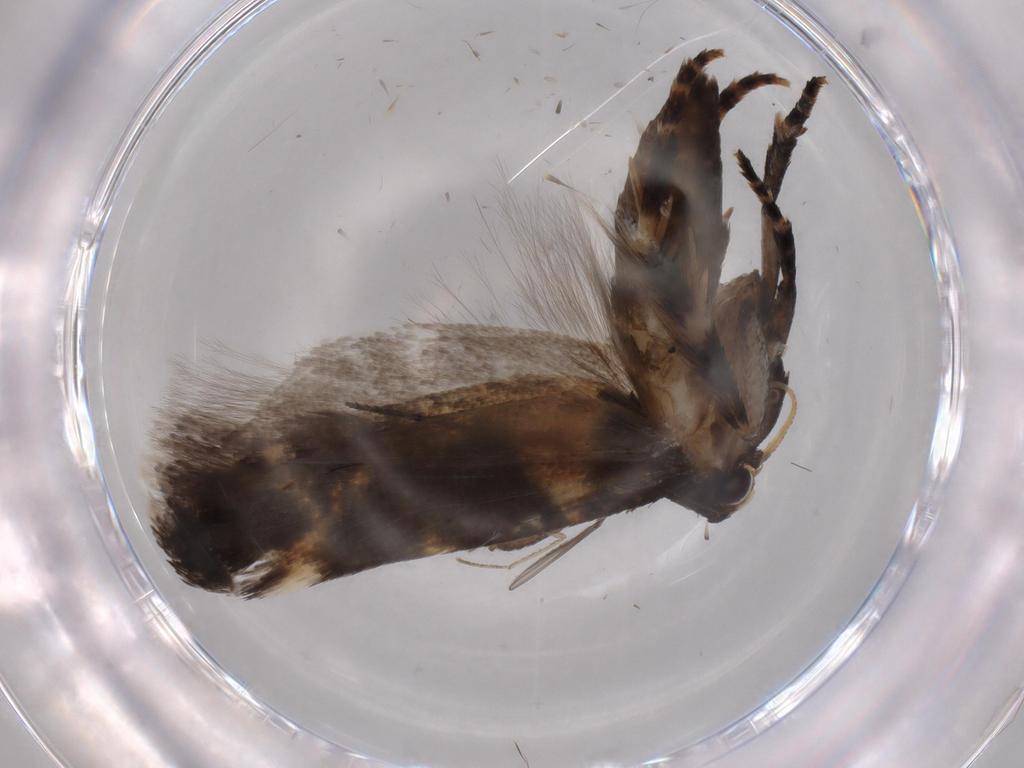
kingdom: Animalia
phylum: Arthropoda
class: Insecta
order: Lepidoptera
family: Gelechiidae
